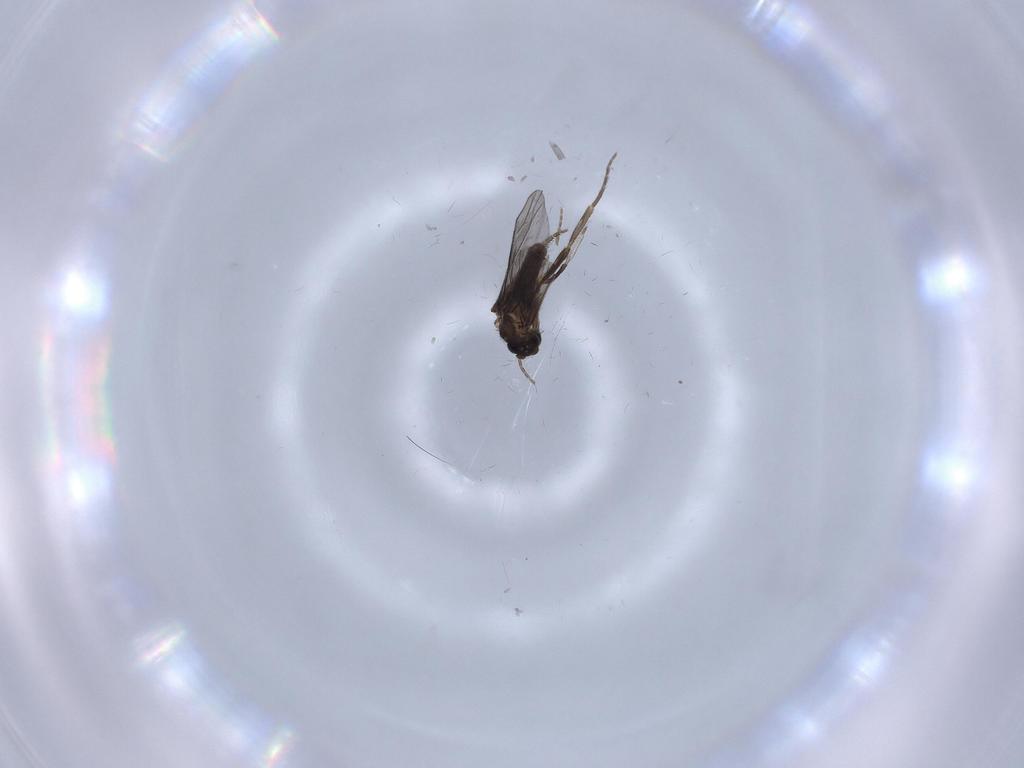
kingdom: Animalia
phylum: Arthropoda
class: Insecta
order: Diptera
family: Phoridae
